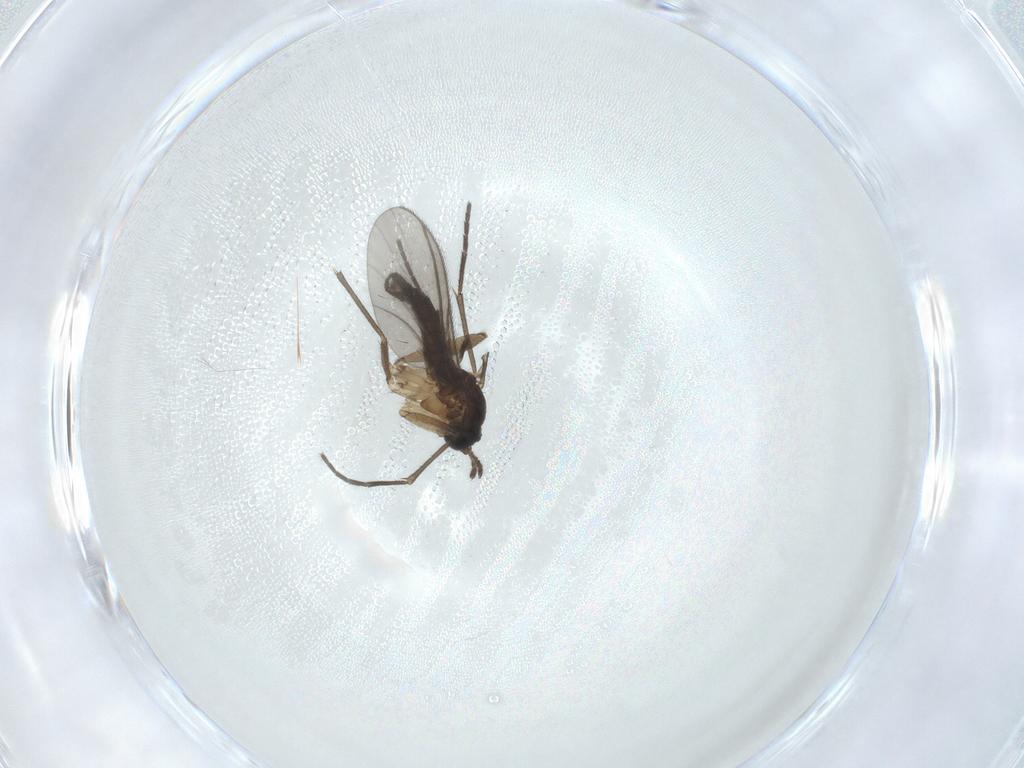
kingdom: Animalia
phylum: Arthropoda
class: Insecta
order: Diptera
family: Sciaridae
